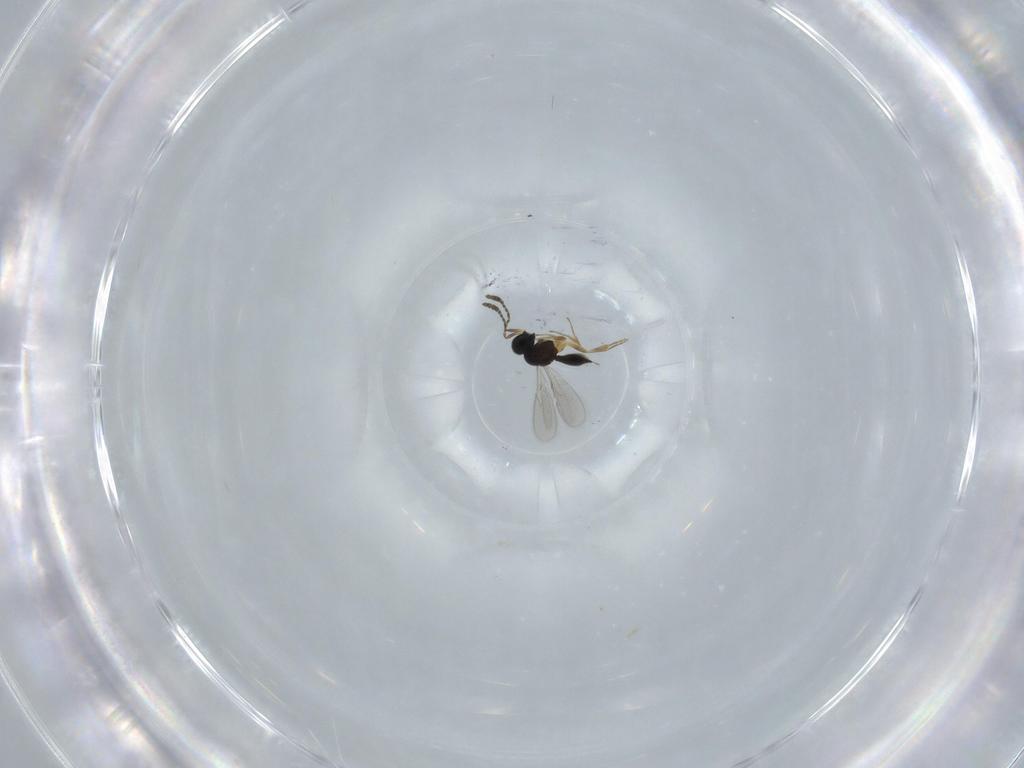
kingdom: Animalia
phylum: Arthropoda
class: Insecta
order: Hymenoptera
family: Scelionidae
